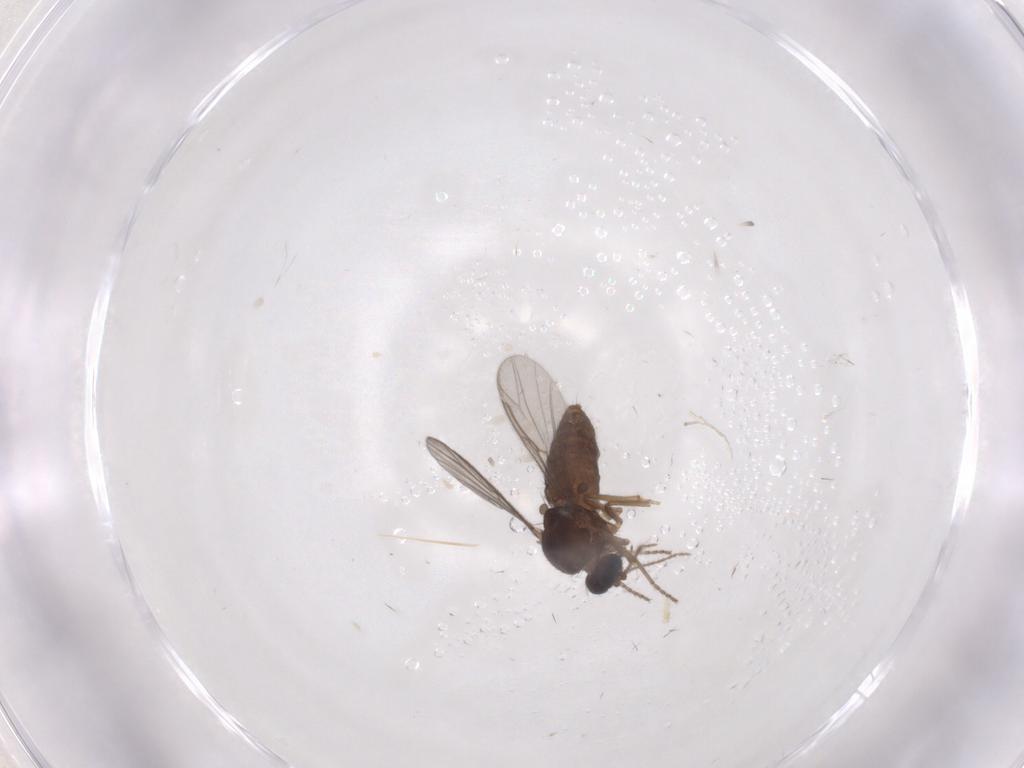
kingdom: Animalia
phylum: Arthropoda
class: Insecta
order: Diptera
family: Ceratopogonidae
